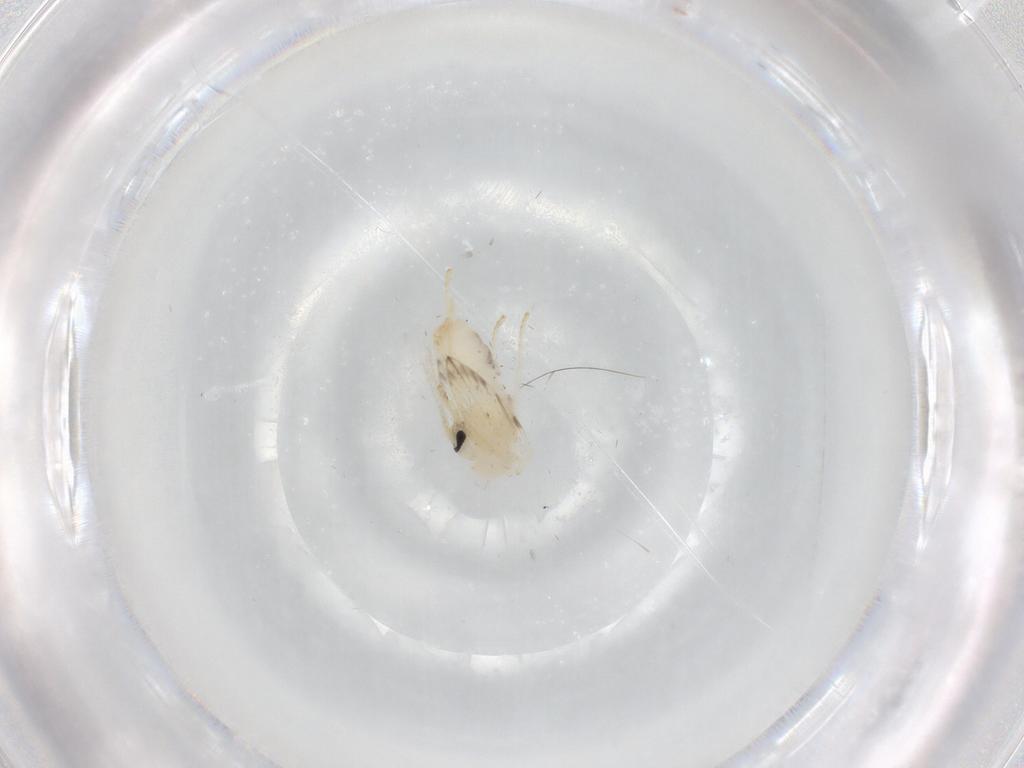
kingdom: Animalia
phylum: Arthropoda
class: Insecta
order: Diptera
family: Psychodidae
